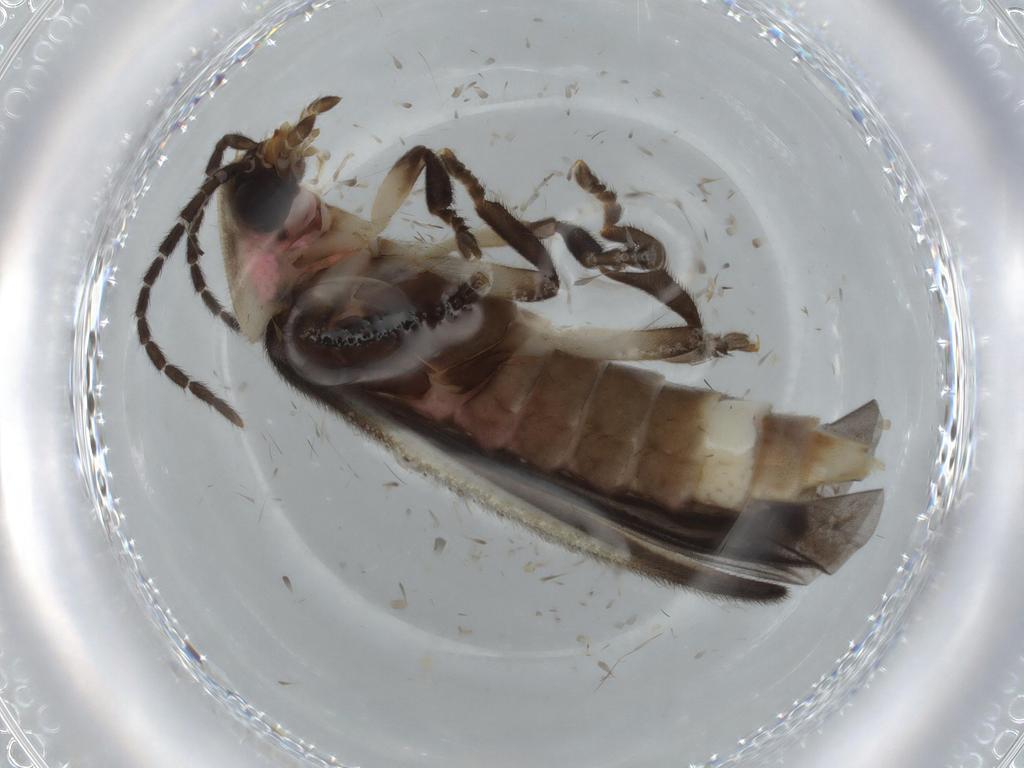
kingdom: Animalia
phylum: Arthropoda
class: Insecta
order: Coleoptera
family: Lampyridae
